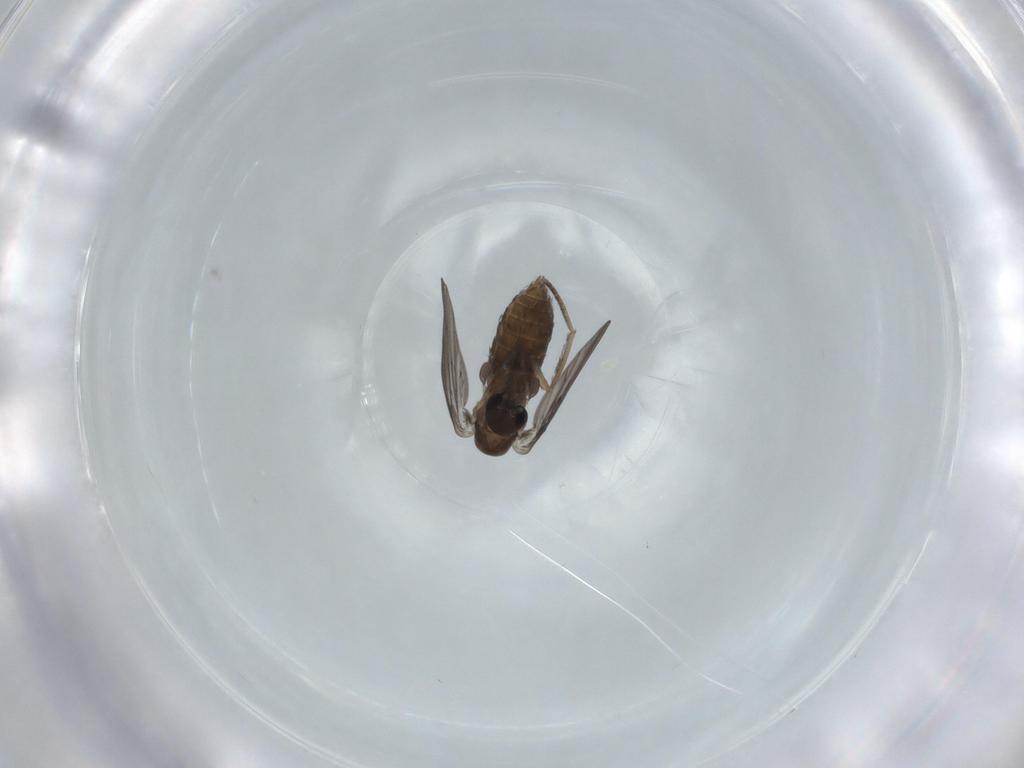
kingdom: Animalia
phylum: Arthropoda
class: Insecta
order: Diptera
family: Psychodidae
